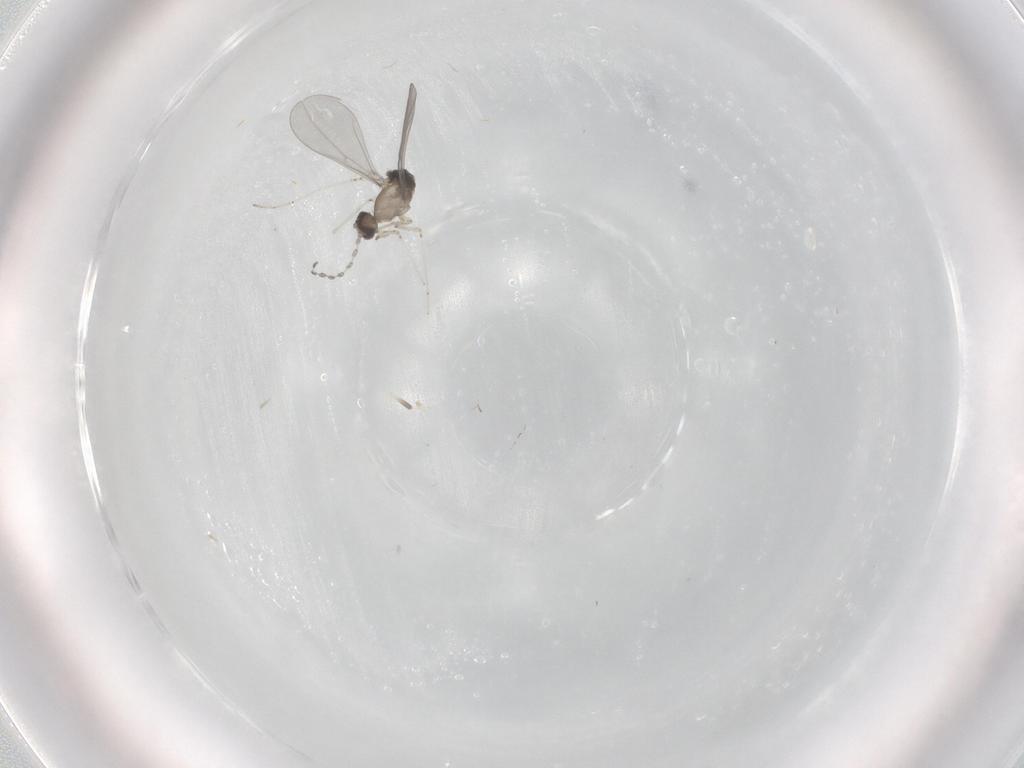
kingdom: Animalia
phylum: Arthropoda
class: Insecta
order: Diptera
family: Cecidomyiidae
